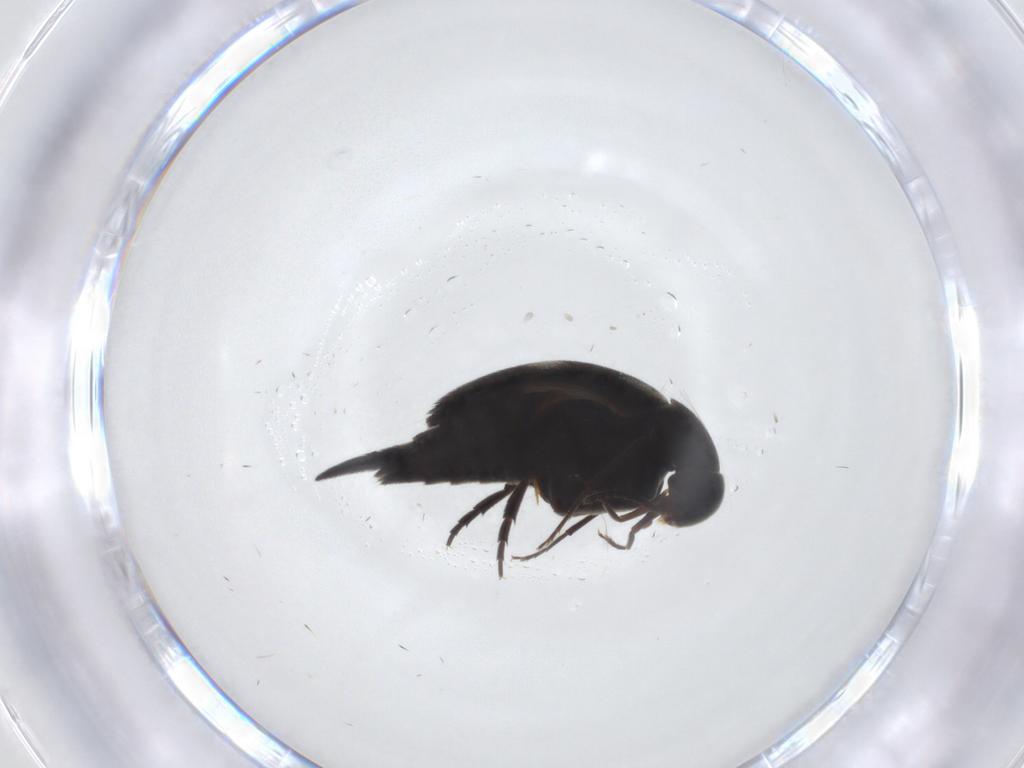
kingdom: Animalia
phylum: Arthropoda
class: Insecta
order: Coleoptera
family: Mordellidae
